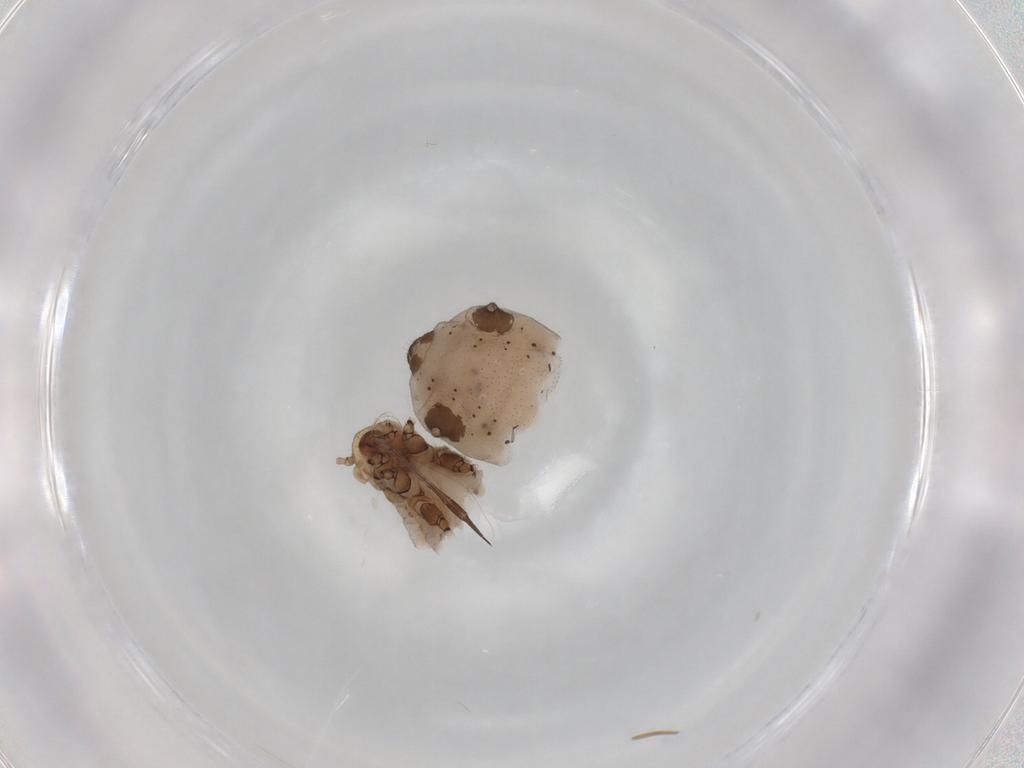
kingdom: Animalia
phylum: Arthropoda
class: Insecta
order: Hemiptera
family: Aphididae
